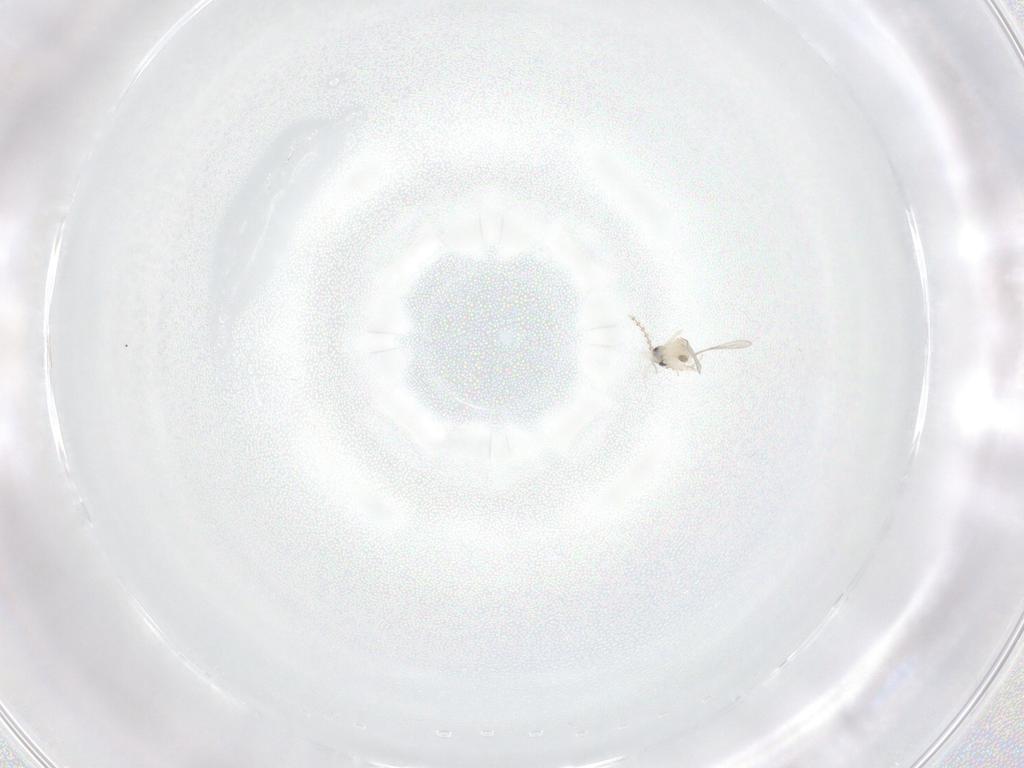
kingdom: Animalia
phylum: Arthropoda
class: Insecta
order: Diptera
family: Cecidomyiidae
